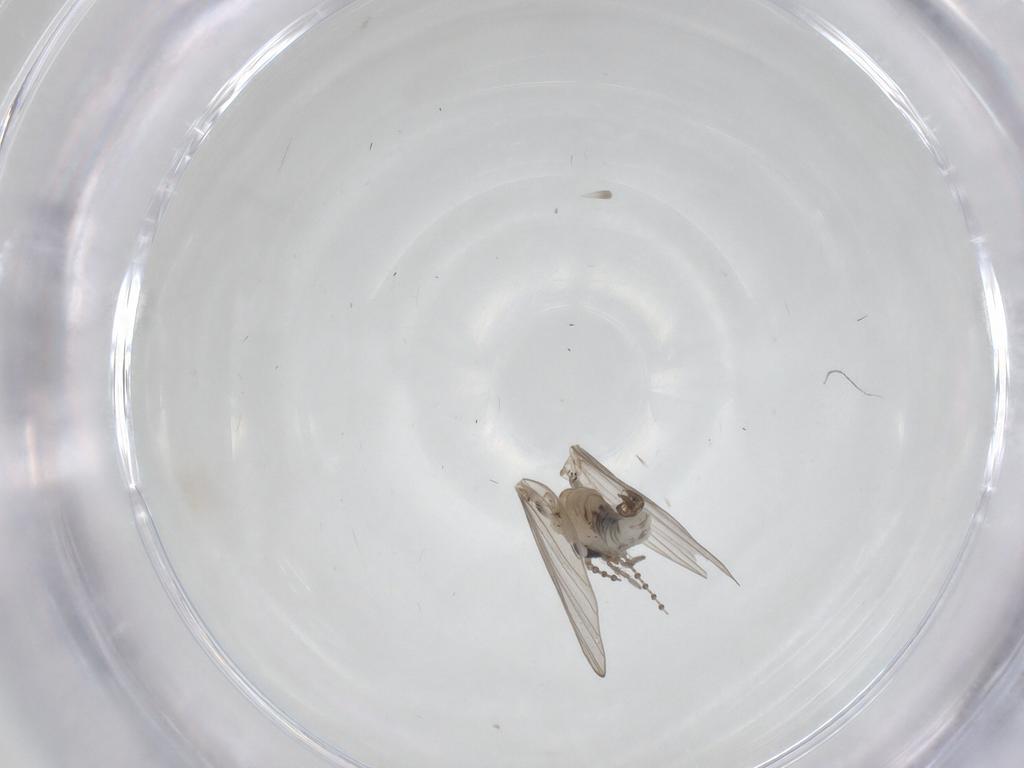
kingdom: Animalia
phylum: Arthropoda
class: Insecta
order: Diptera
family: Psychodidae
